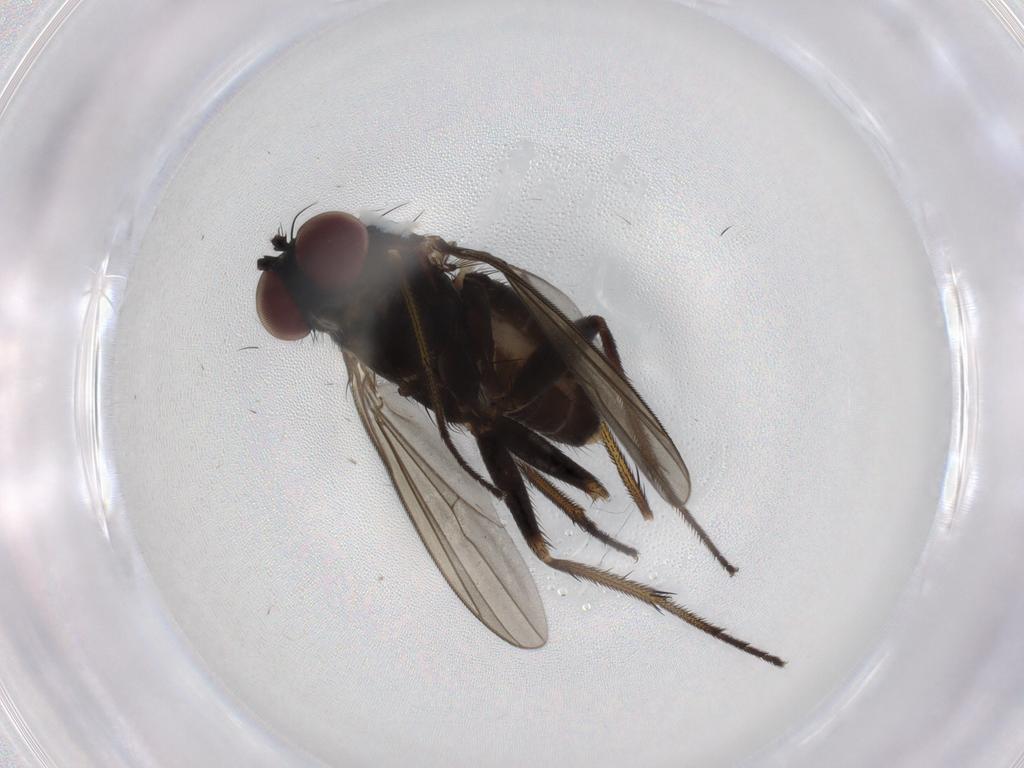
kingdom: Animalia
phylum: Arthropoda
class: Insecta
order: Diptera
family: Dolichopodidae
